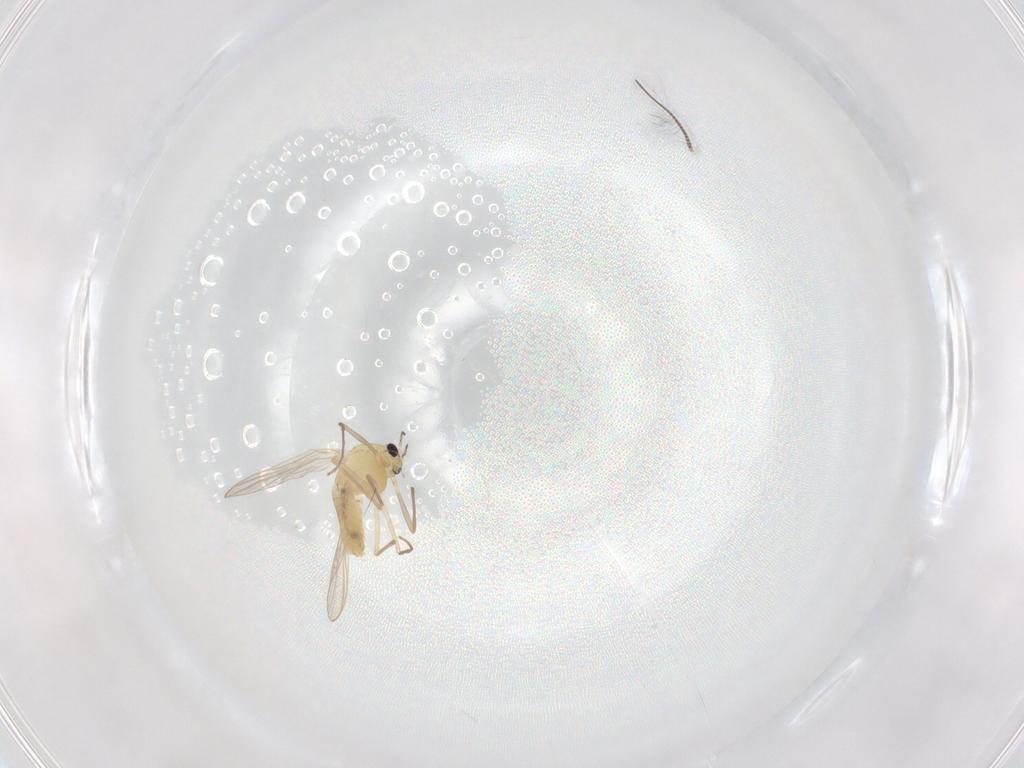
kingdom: Animalia
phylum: Arthropoda
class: Insecta
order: Diptera
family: Chironomidae
